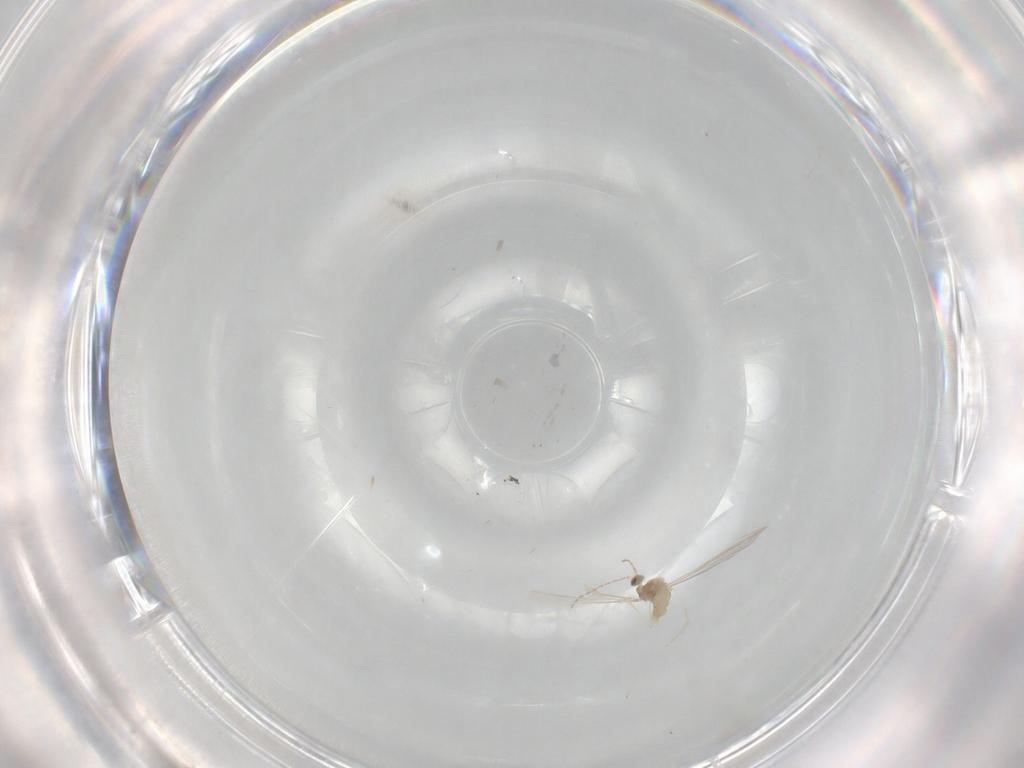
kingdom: Animalia
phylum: Arthropoda
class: Insecta
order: Diptera
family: Cecidomyiidae
